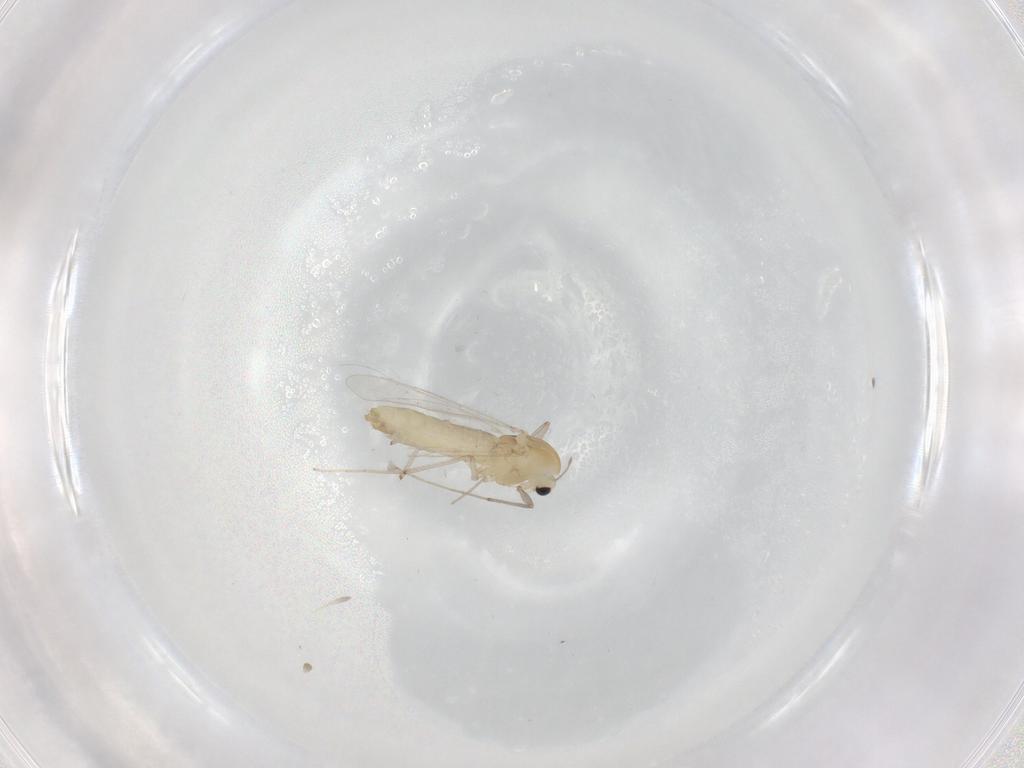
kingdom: Animalia
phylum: Arthropoda
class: Insecta
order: Diptera
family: Chironomidae
